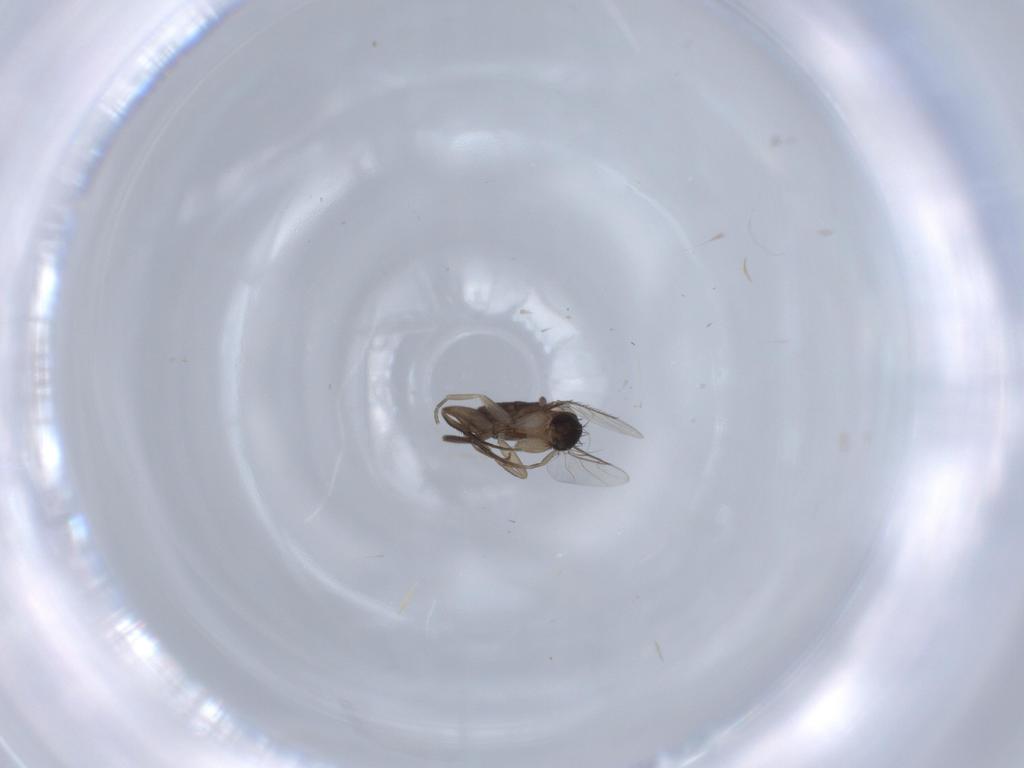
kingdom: Animalia
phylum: Arthropoda
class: Insecta
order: Diptera
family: Phoridae
